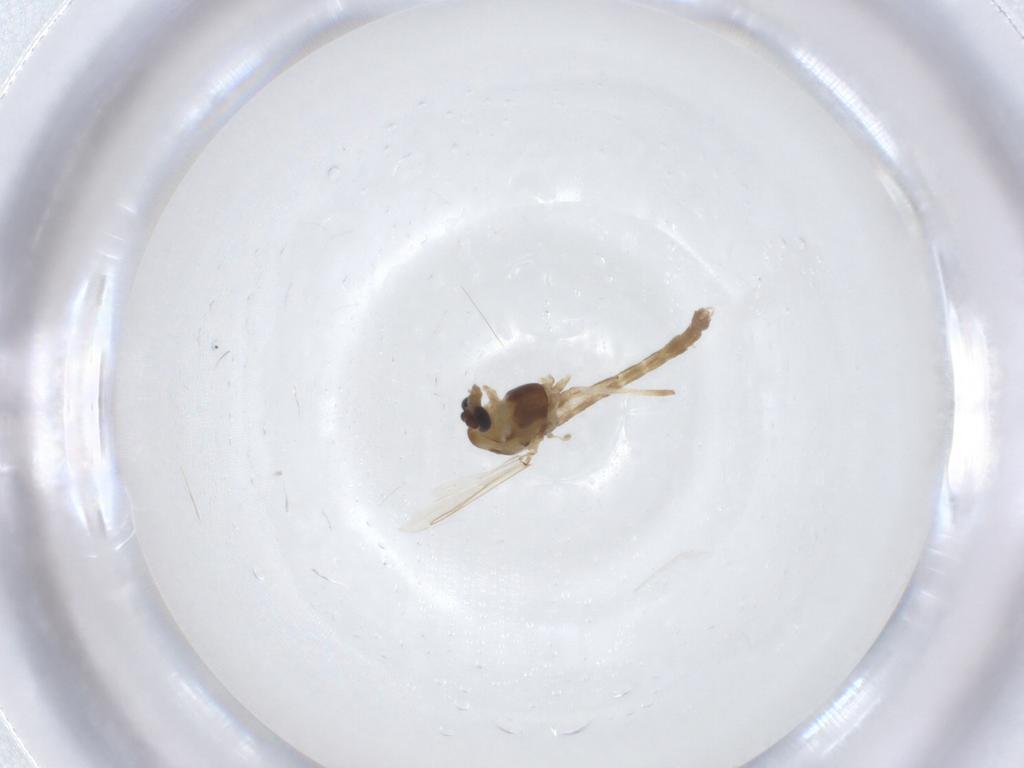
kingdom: Animalia
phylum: Arthropoda
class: Insecta
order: Diptera
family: Chironomidae
